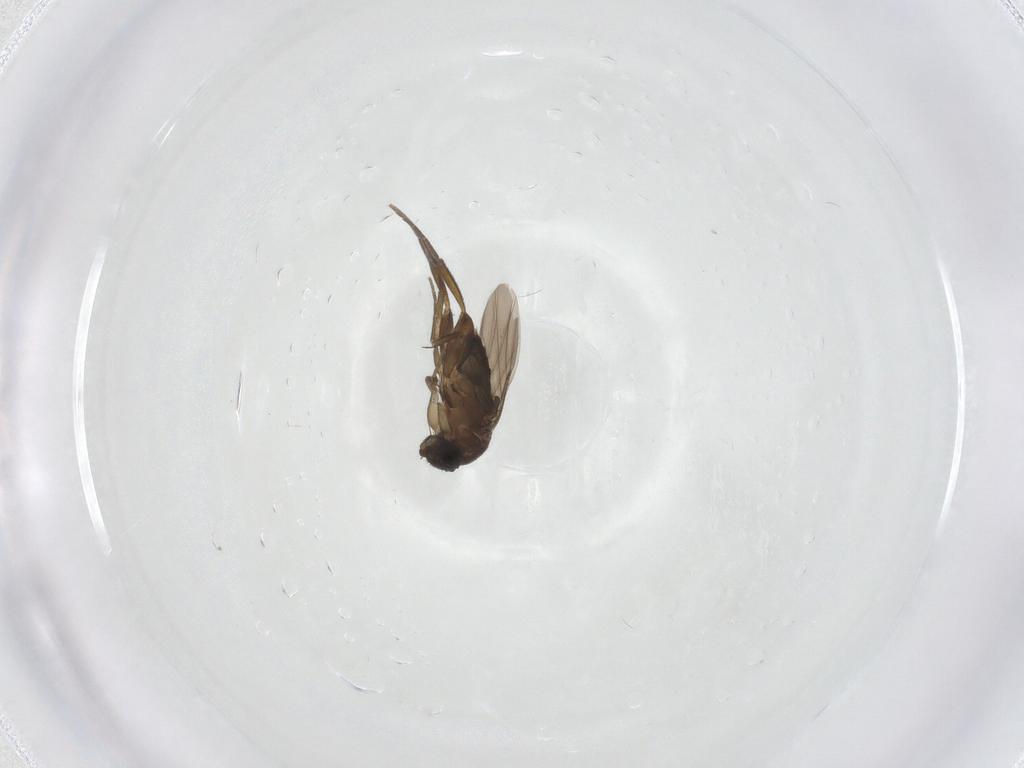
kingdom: Animalia
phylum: Arthropoda
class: Insecta
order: Diptera
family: Phoridae
